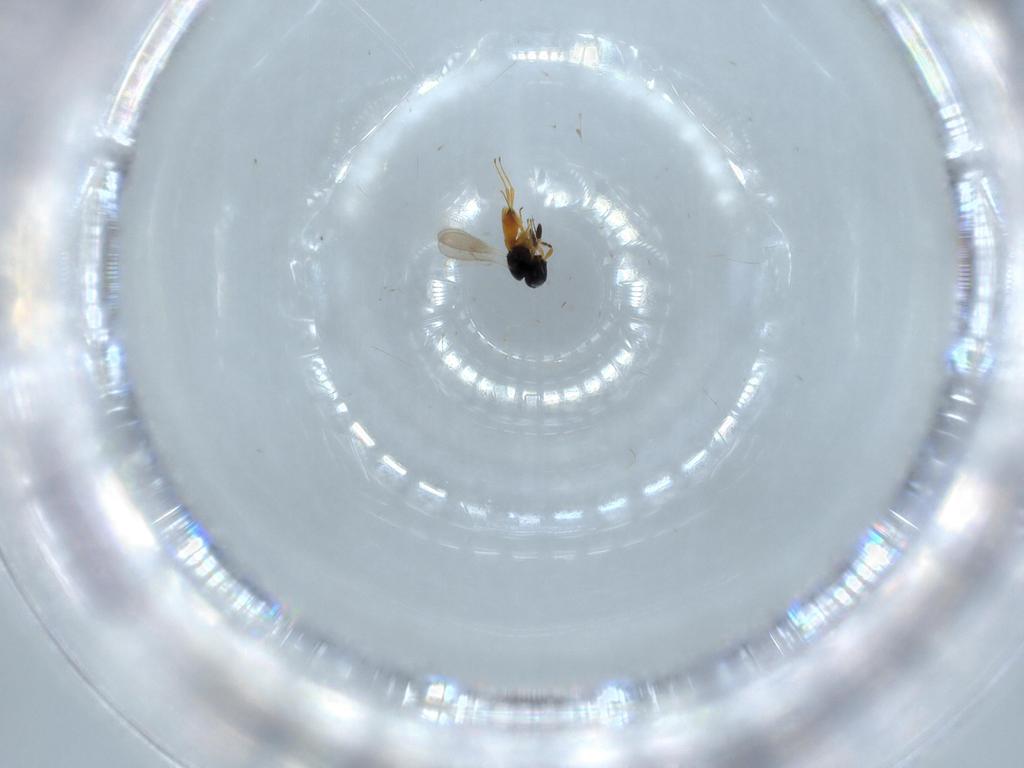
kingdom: Animalia
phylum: Arthropoda
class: Insecta
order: Hymenoptera
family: Scelionidae
